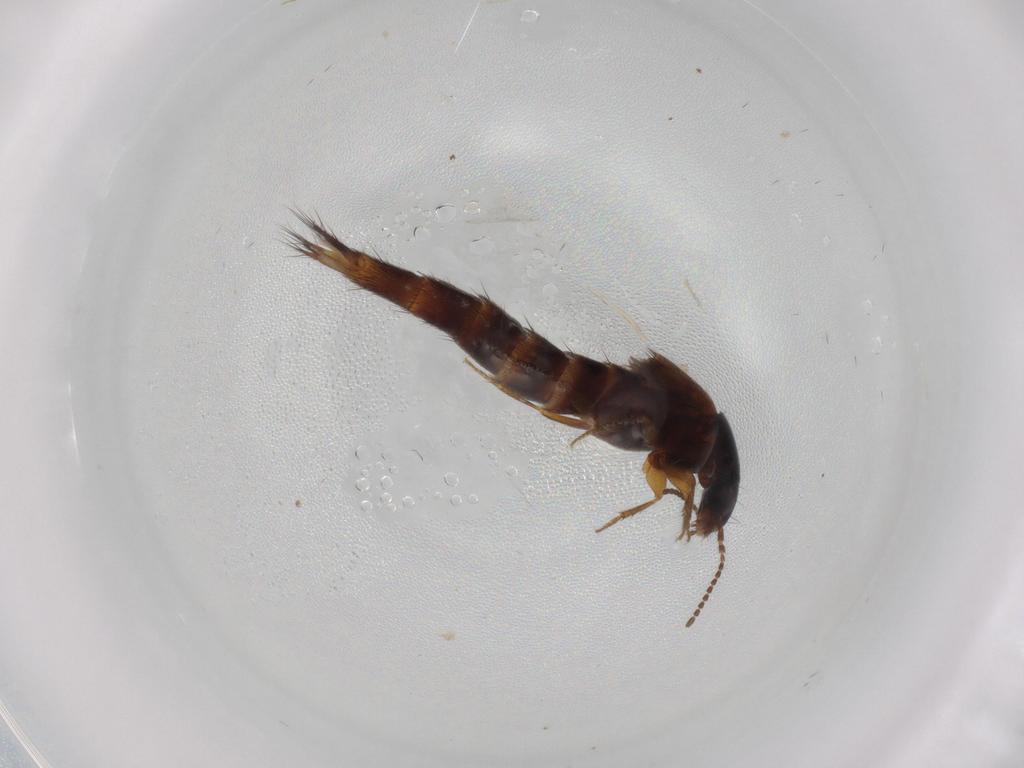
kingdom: Animalia
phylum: Arthropoda
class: Insecta
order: Coleoptera
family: Staphylinidae
